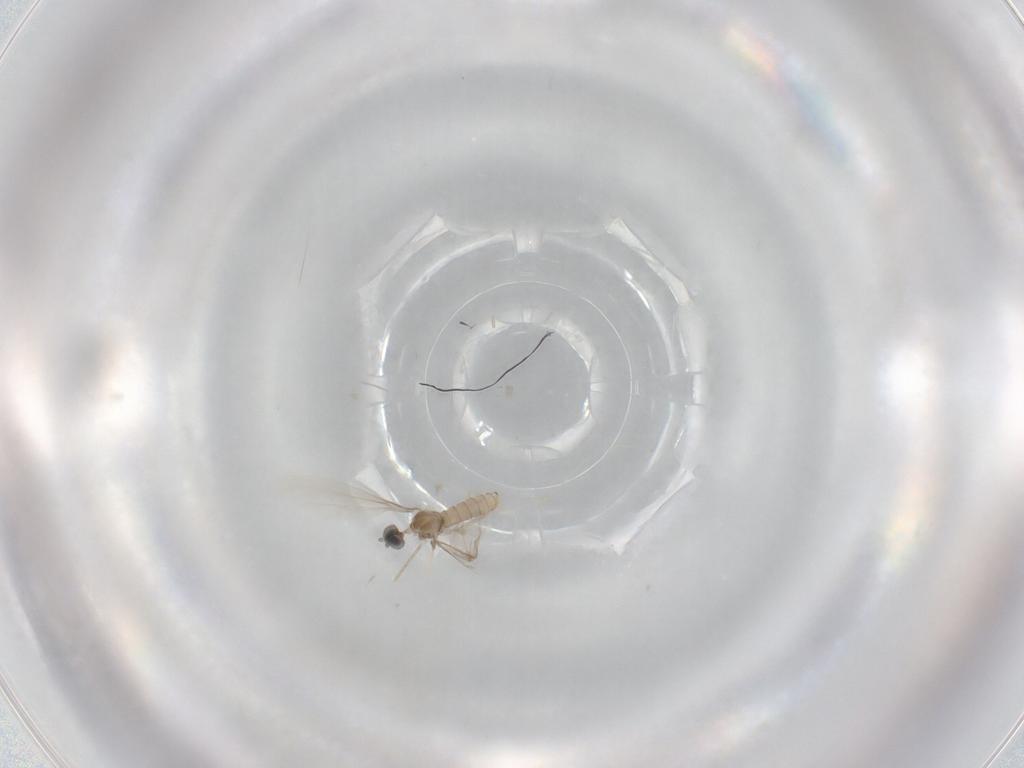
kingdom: Animalia
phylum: Arthropoda
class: Insecta
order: Diptera
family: Cecidomyiidae
